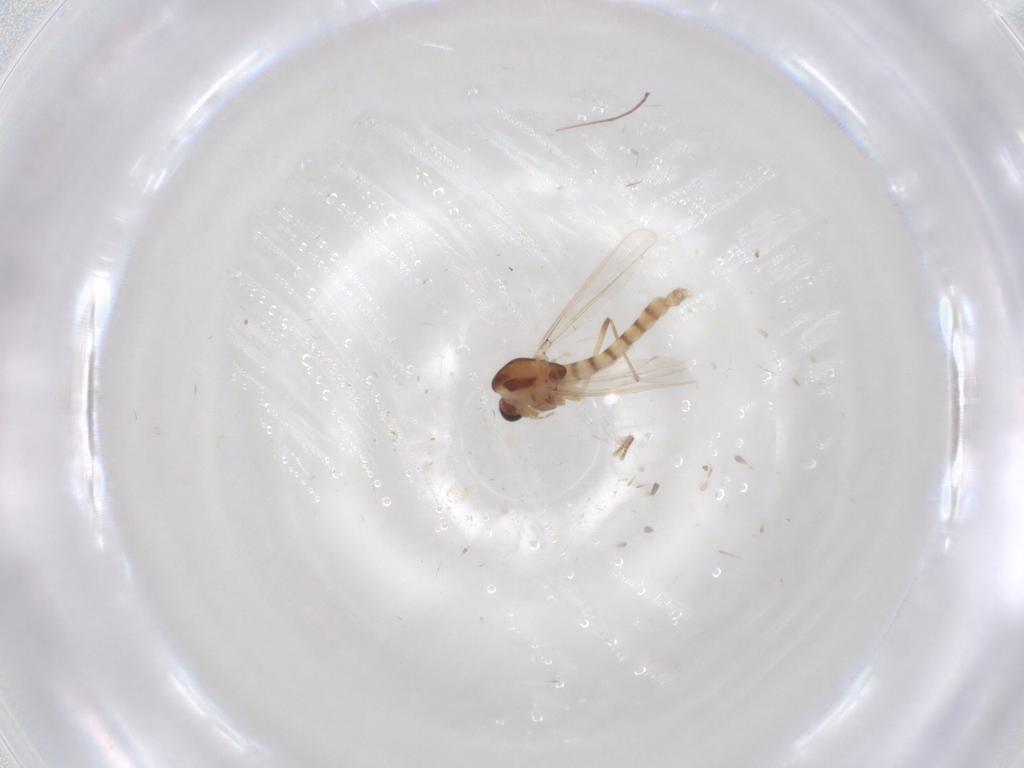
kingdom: Animalia
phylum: Arthropoda
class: Insecta
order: Diptera
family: Chironomidae
